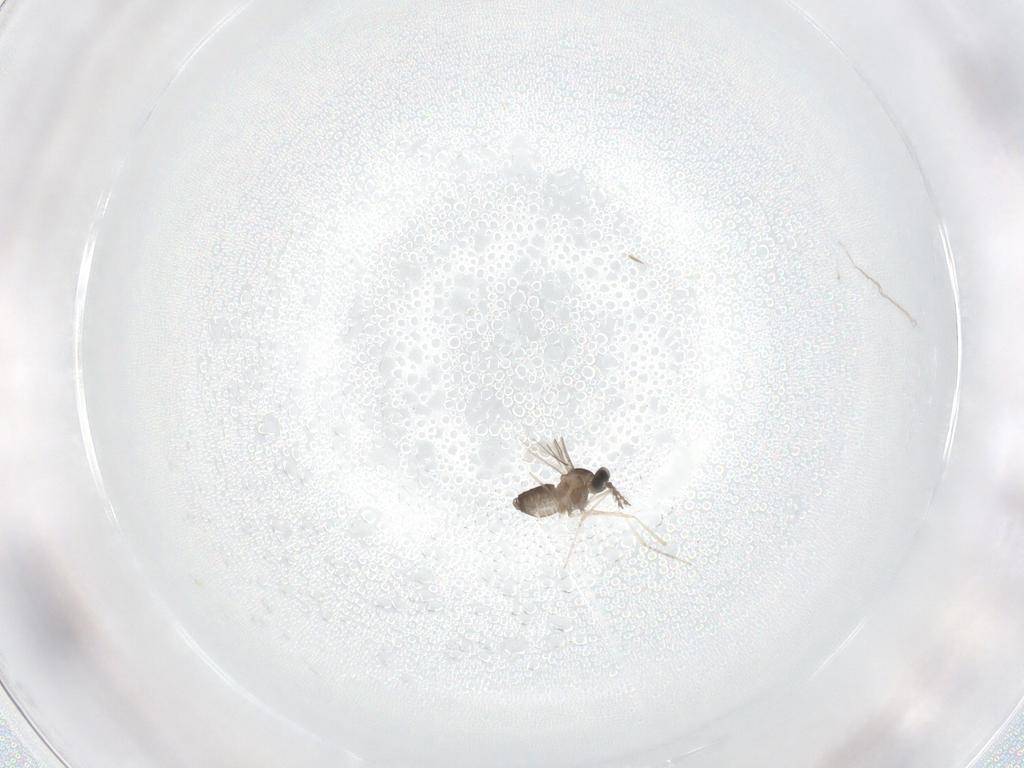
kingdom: Animalia
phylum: Arthropoda
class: Insecta
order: Diptera
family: Cecidomyiidae
